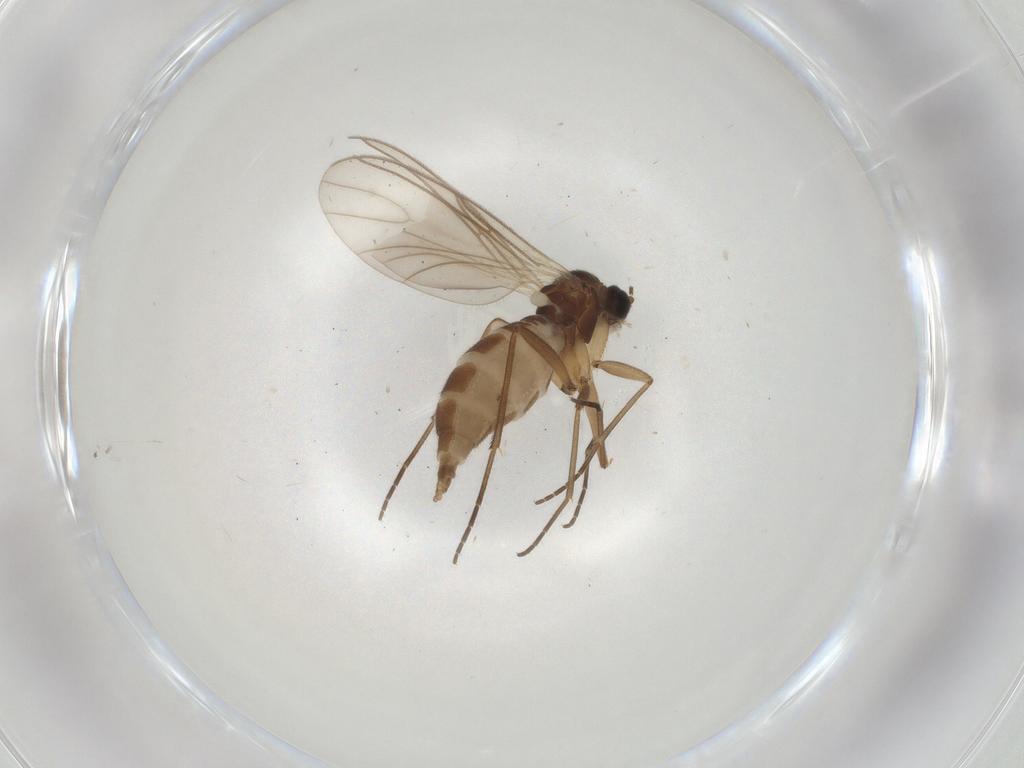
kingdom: Animalia
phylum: Arthropoda
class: Insecta
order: Diptera
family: Sciaridae
